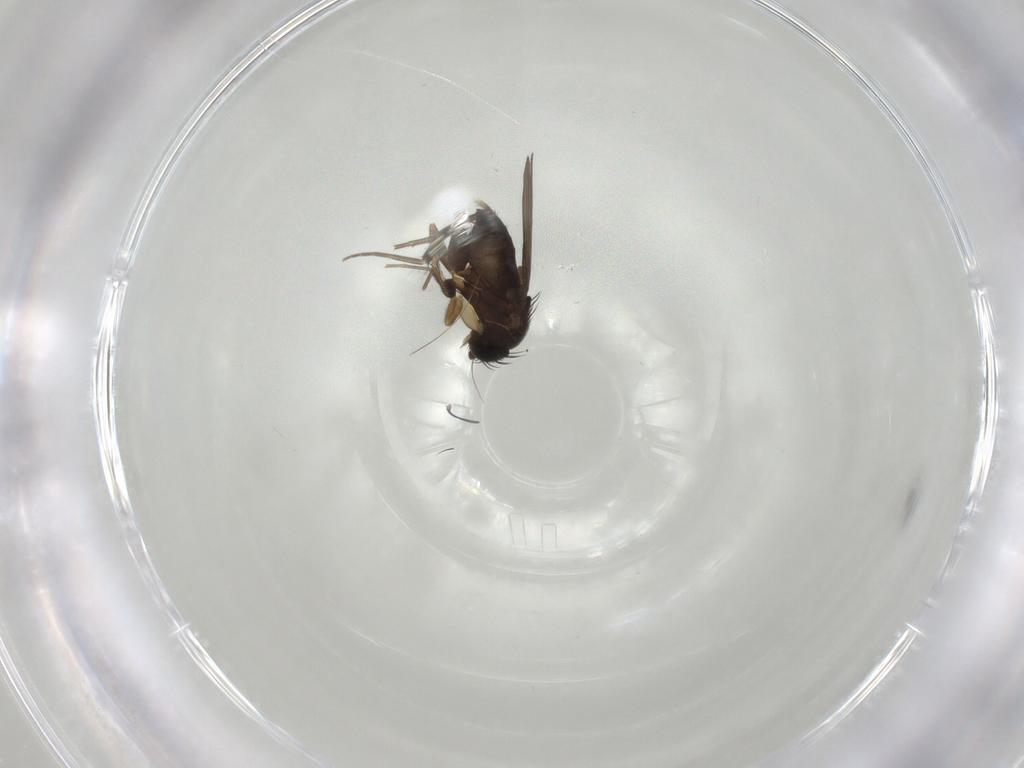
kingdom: Animalia
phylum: Arthropoda
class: Insecta
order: Diptera
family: Phoridae
